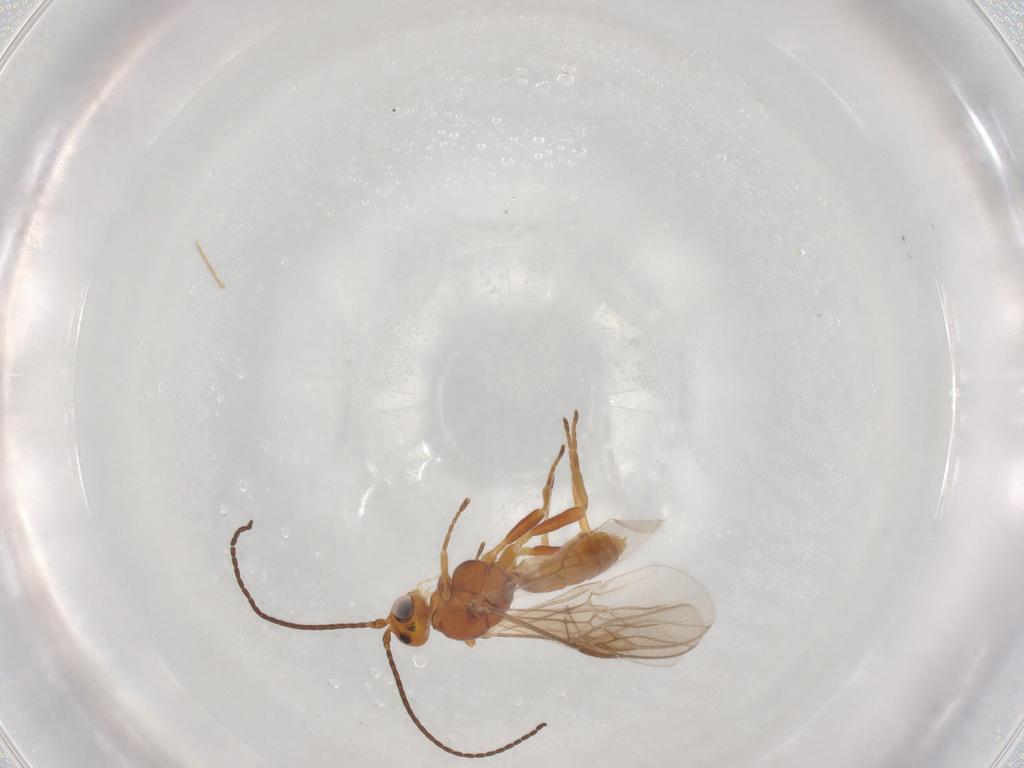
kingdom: Animalia
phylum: Arthropoda
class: Insecta
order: Hymenoptera
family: Braconidae
